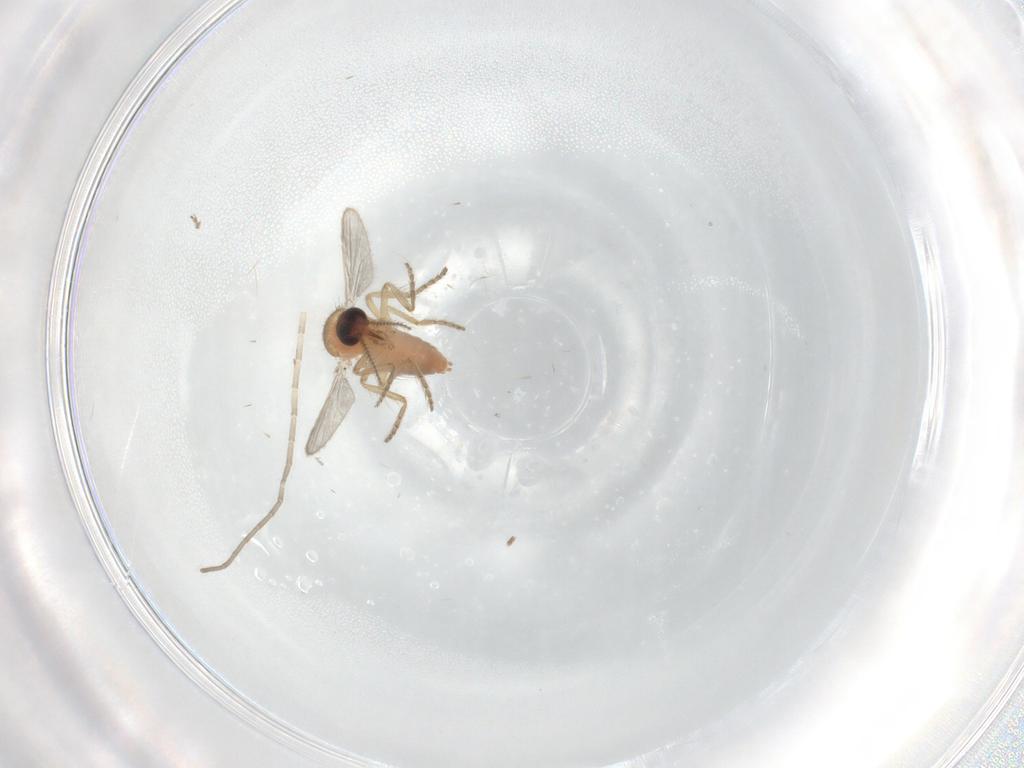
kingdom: Animalia
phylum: Arthropoda
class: Insecta
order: Diptera
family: Ceratopogonidae
